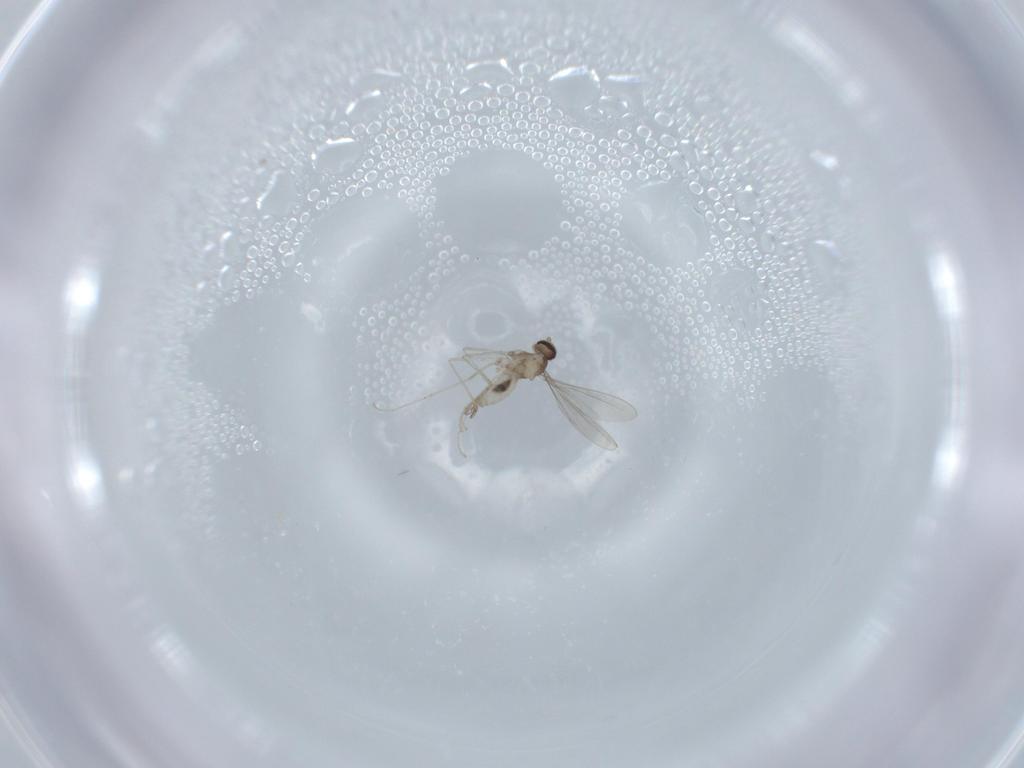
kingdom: Animalia
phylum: Arthropoda
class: Insecta
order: Diptera
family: Cecidomyiidae
